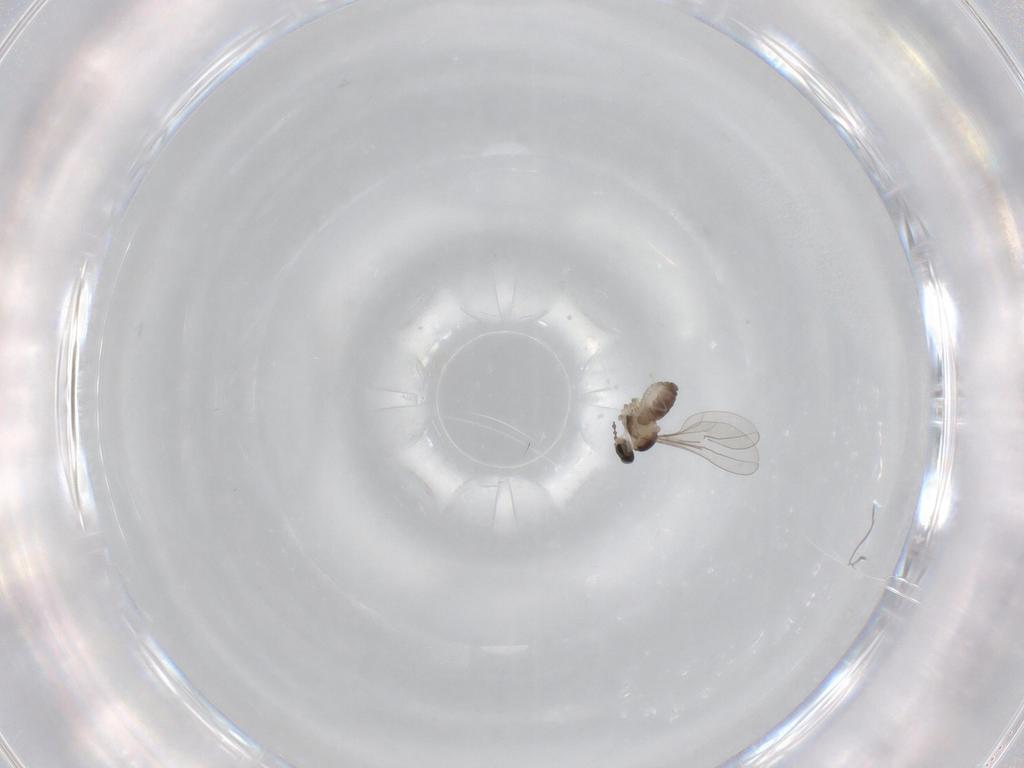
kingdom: Animalia
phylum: Arthropoda
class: Insecta
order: Diptera
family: Cecidomyiidae
